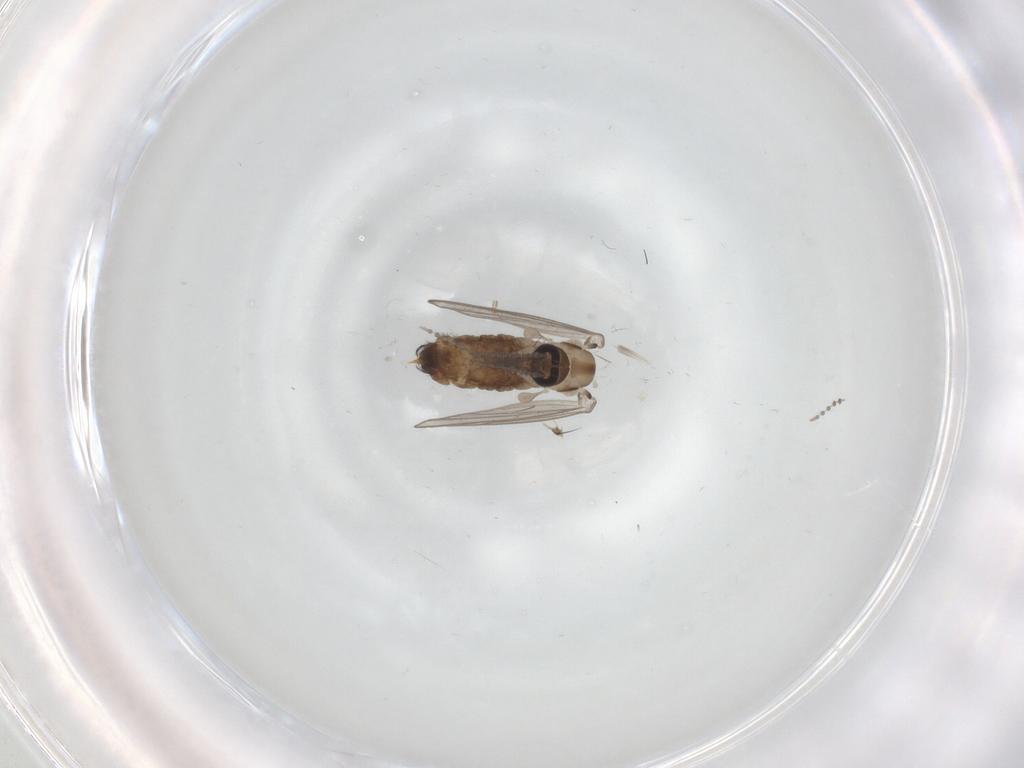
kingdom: Animalia
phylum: Arthropoda
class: Insecta
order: Diptera
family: Psychodidae
